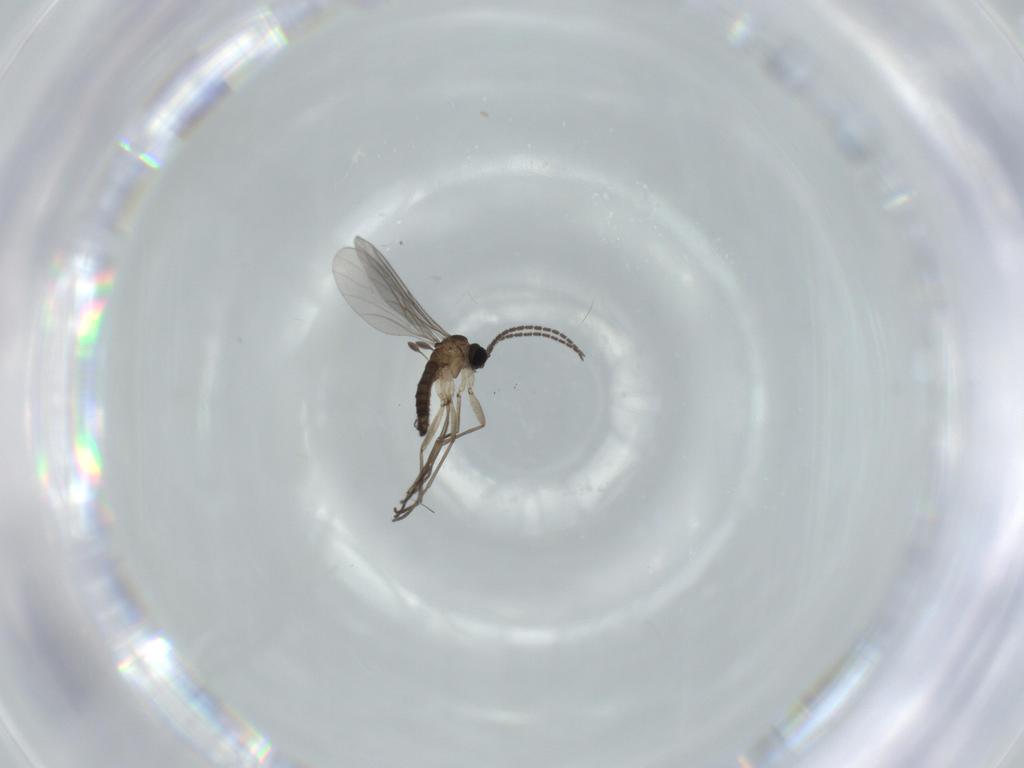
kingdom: Animalia
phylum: Arthropoda
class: Insecta
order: Diptera
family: Sciaridae
